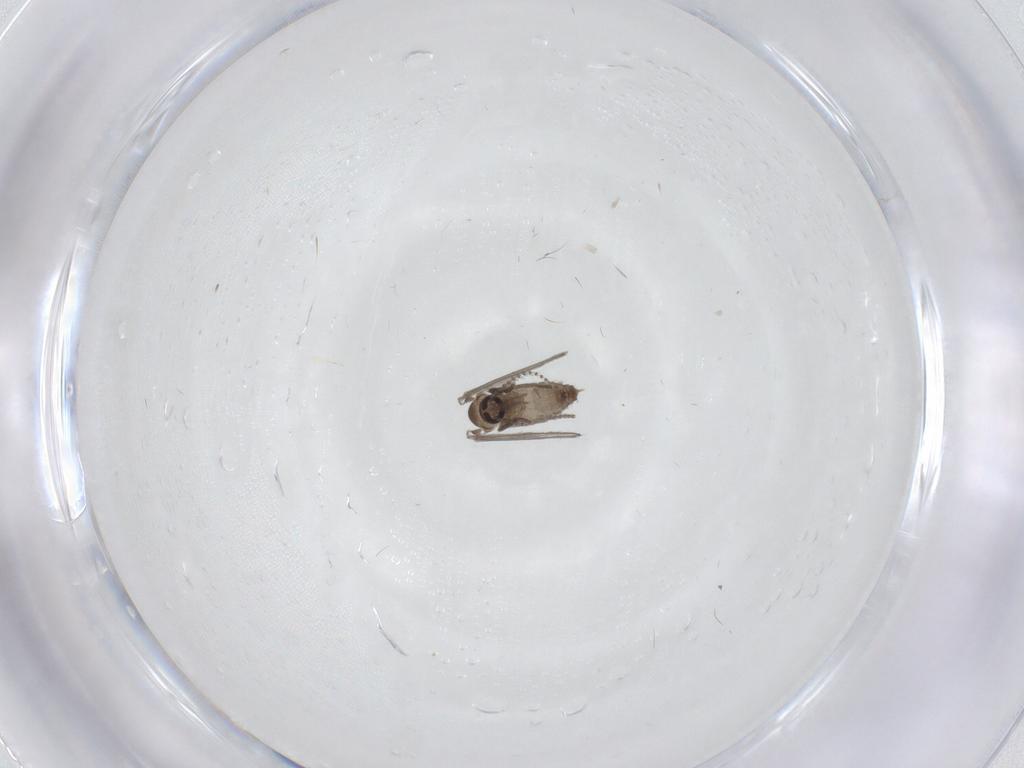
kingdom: Animalia
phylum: Arthropoda
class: Insecta
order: Diptera
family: Psychodidae
